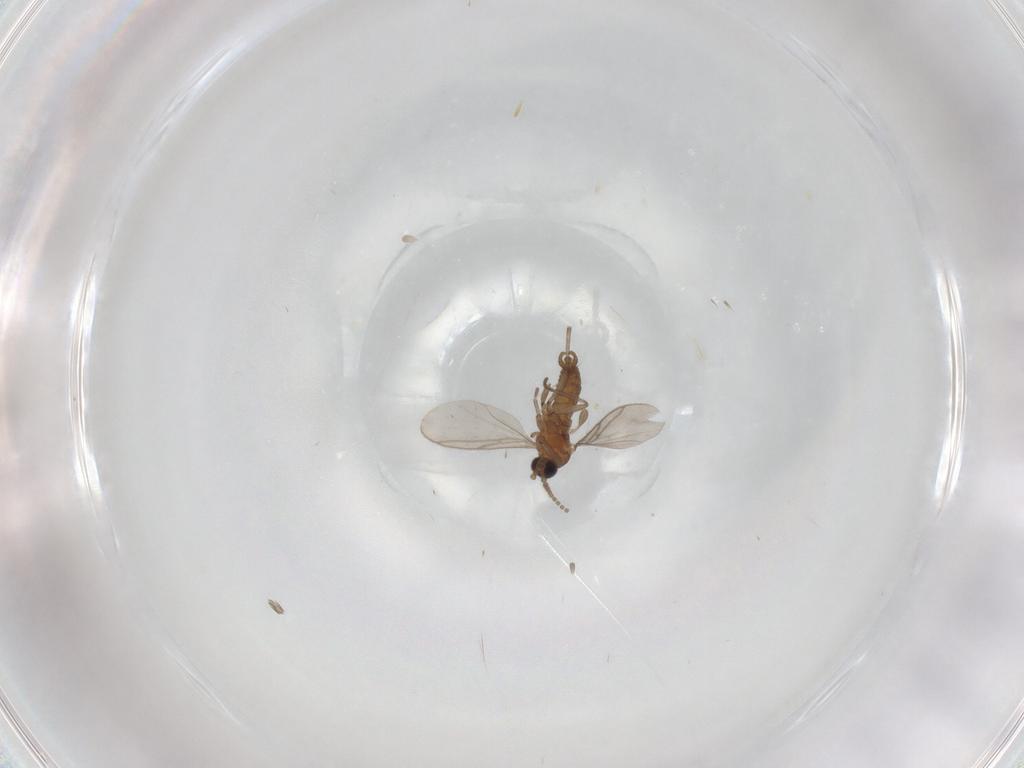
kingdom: Animalia
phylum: Arthropoda
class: Insecta
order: Diptera
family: Sciaridae
